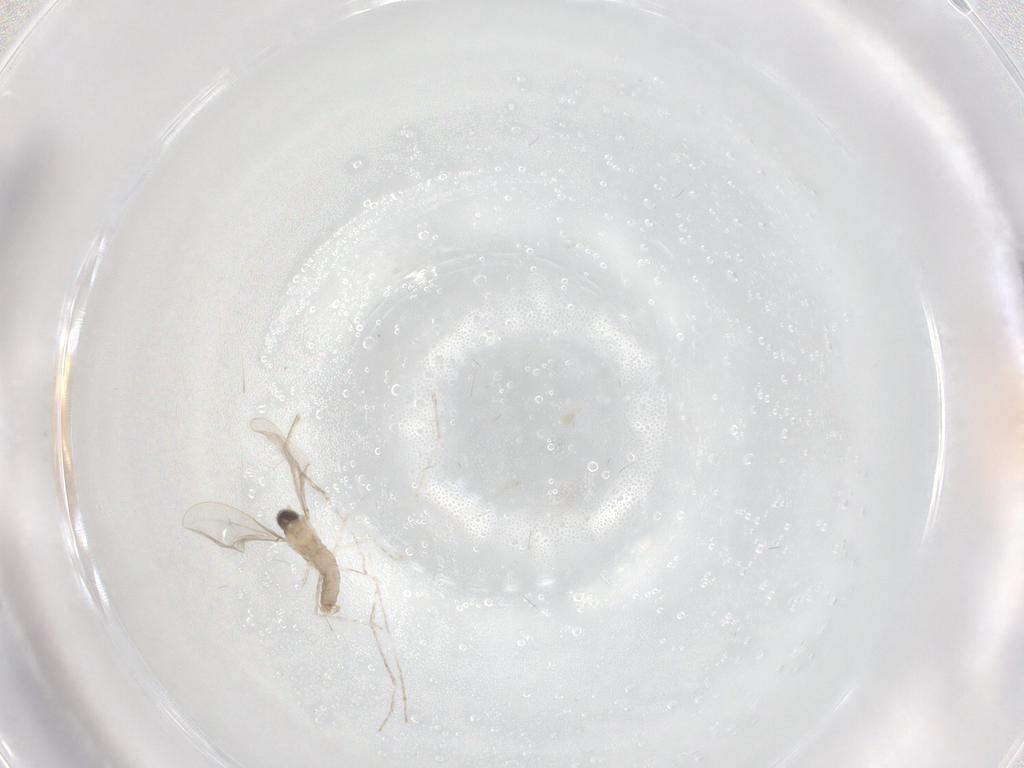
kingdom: Animalia
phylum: Arthropoda
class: Insecta
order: Diptera
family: Cecidomyiidae
